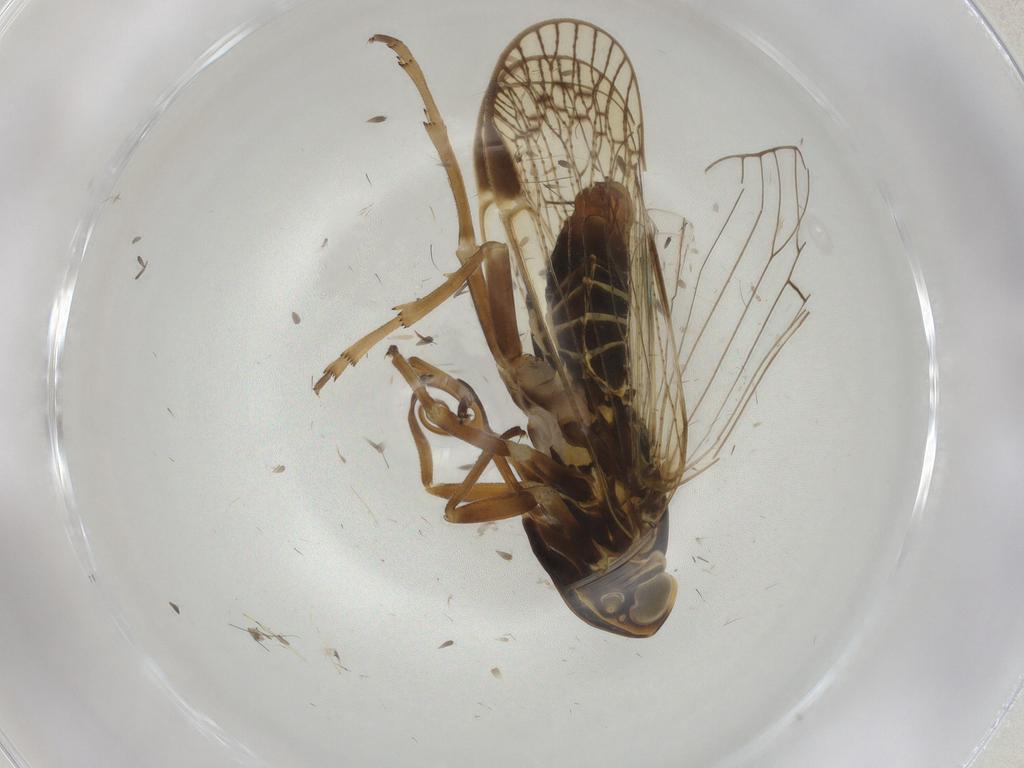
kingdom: Animalia
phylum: Arthropoda
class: Insecta
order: Hemiptera
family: Cixiidae
